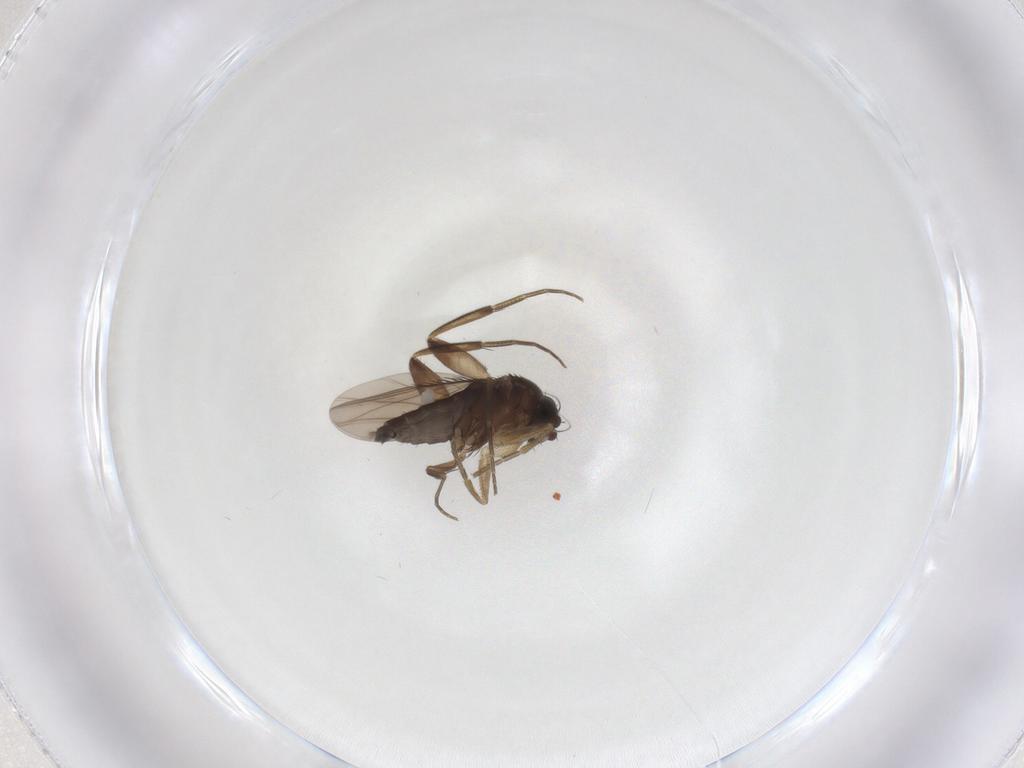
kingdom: Animalia
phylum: Arthropoda
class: Insecta
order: Diptera
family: Phoridae
